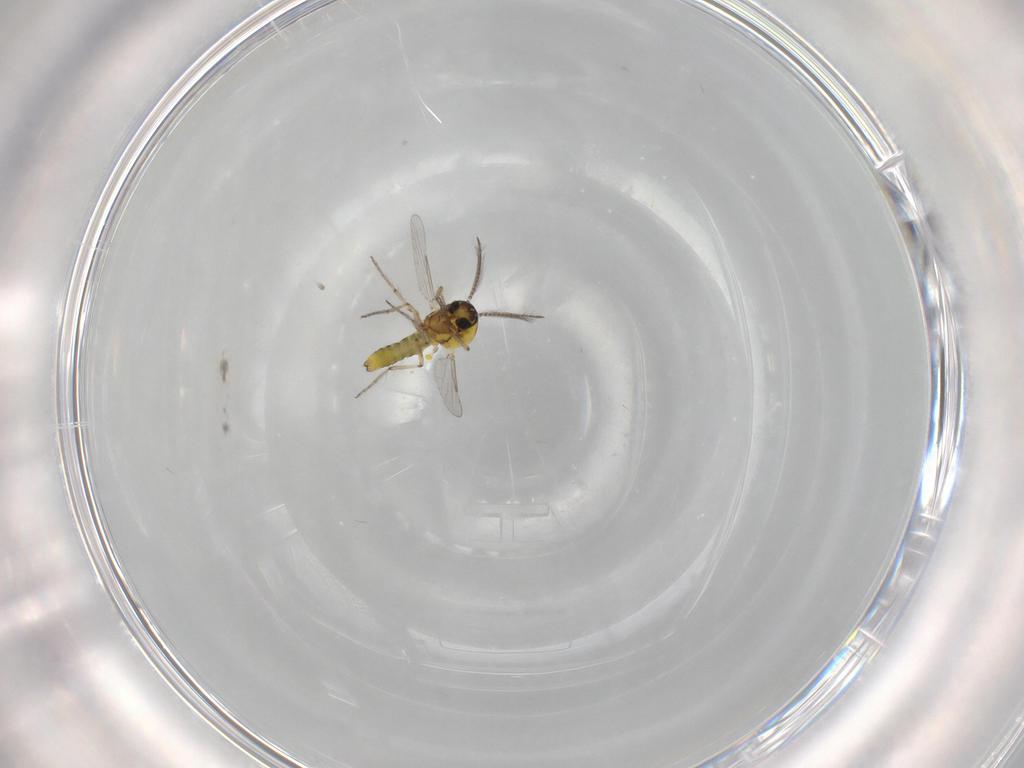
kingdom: Animalia
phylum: Arthropoda
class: Insecta
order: Diptera
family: Ceratopogonidae
